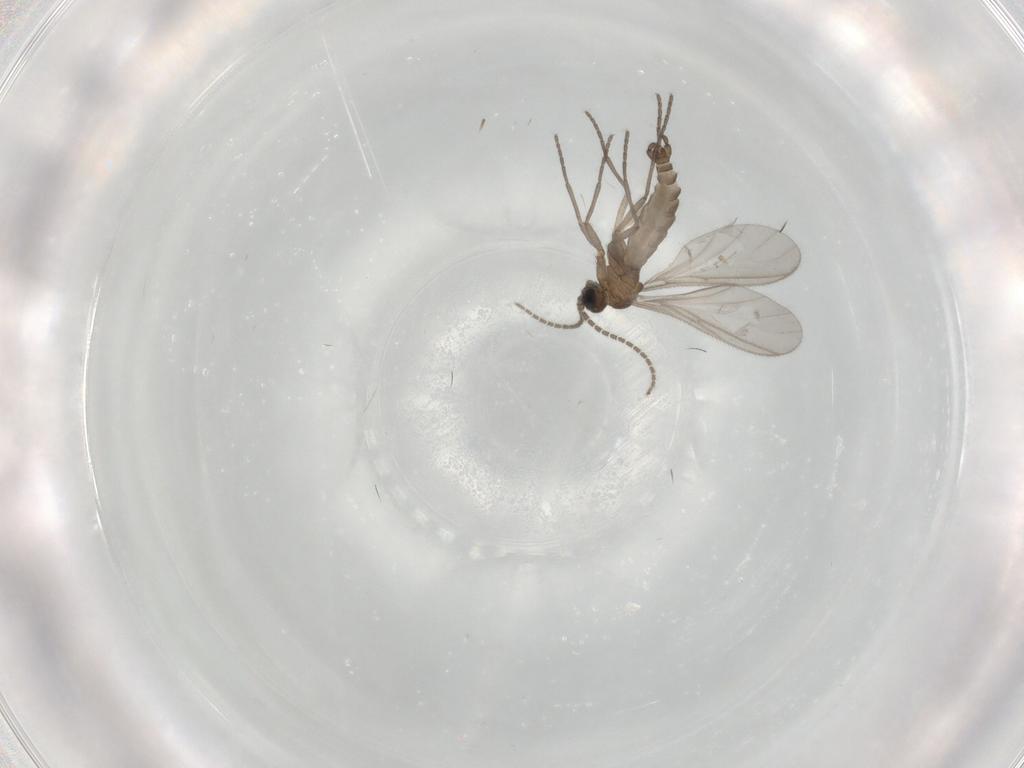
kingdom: Animalia
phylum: Arthropoda
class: Insecta
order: Diptera
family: Sciaridae
